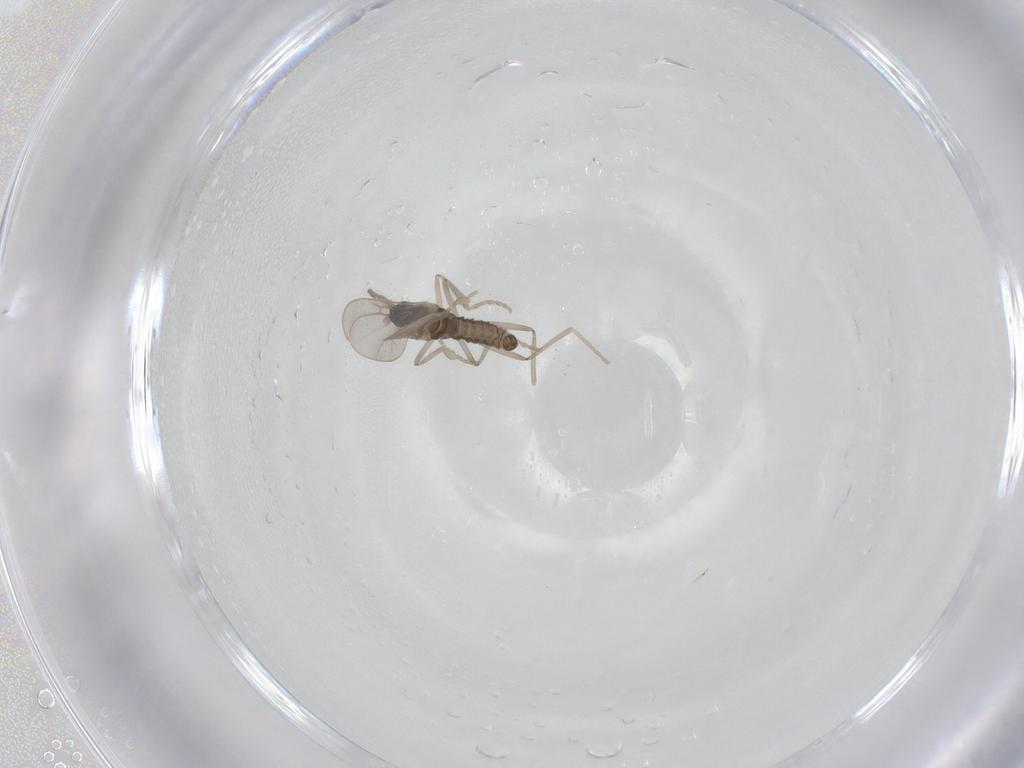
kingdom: Animalia
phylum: Arthropoda
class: Insecta
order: Diptera
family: Cecidomyiidae
